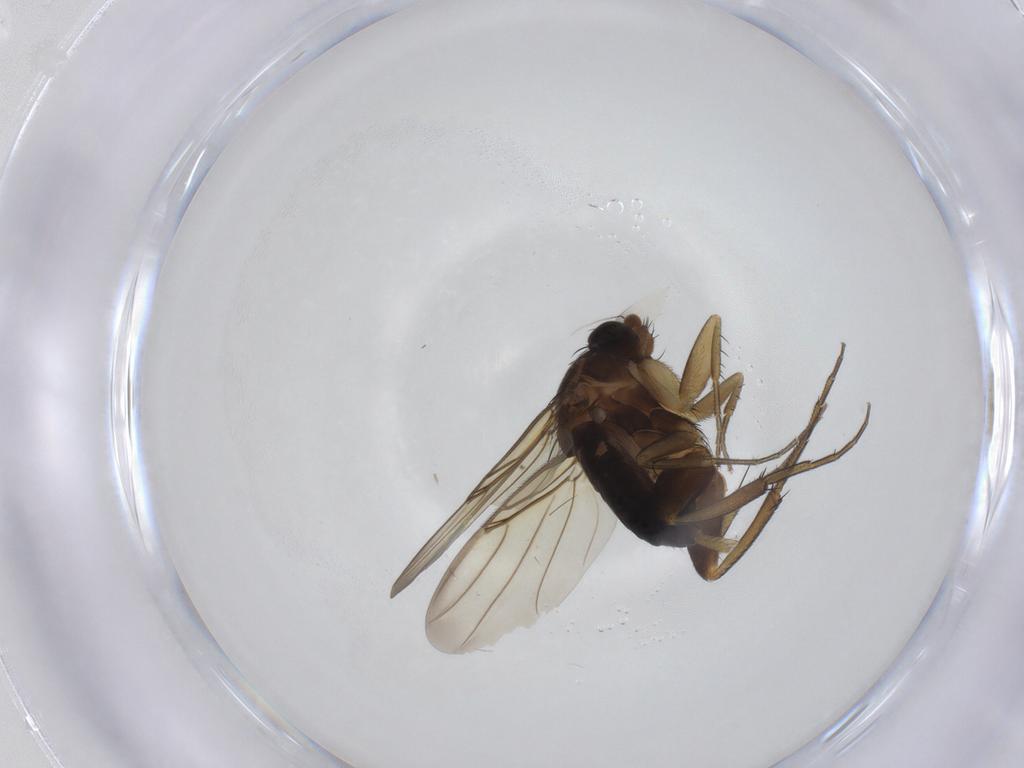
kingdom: Animalia
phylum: Arthropoda
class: Insecta
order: Diptera
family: Phoridae
